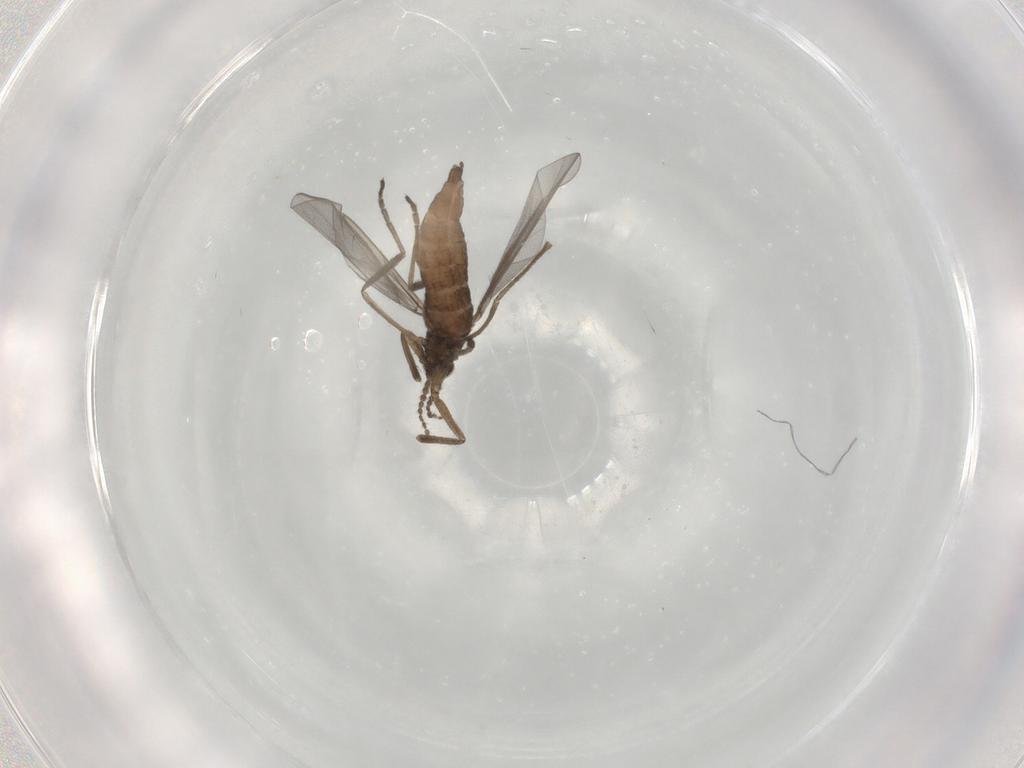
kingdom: Animalia
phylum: Arthropoda
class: Insecta
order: Diptera
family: Cecidomyiidae
